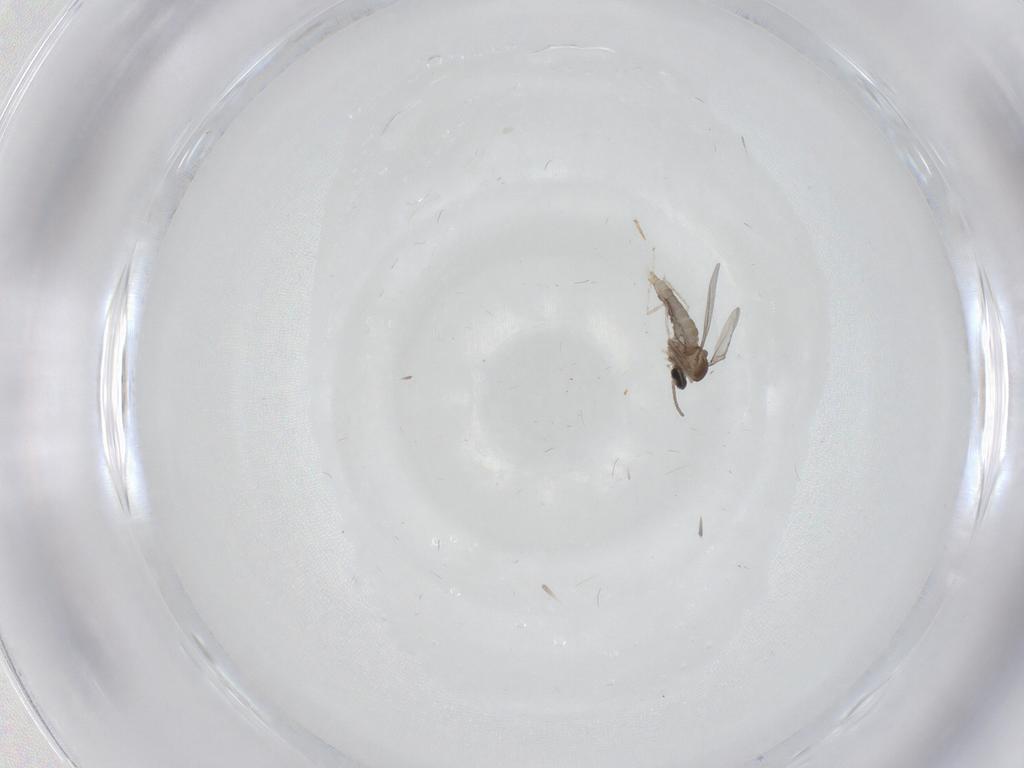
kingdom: Animalia
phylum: Arthropoda
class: Insecta
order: Diptera
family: Cecidomyiidae
